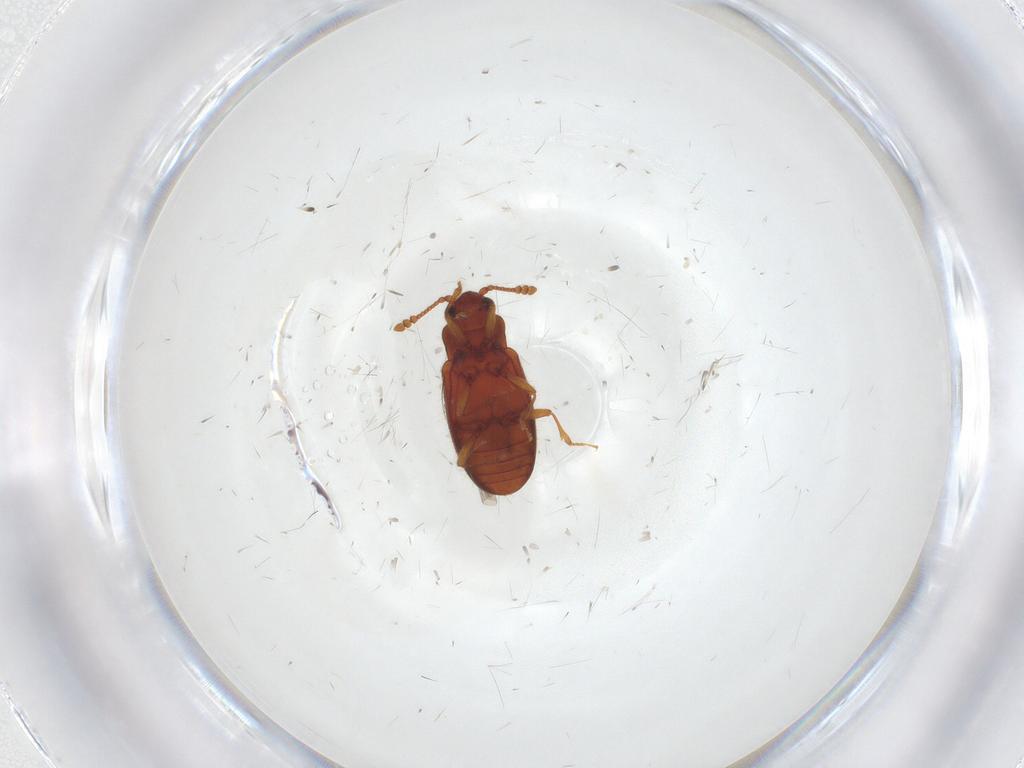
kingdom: Animalia
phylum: Arthropoda
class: Insecta
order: Coleoptera
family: Cryptophagidae
